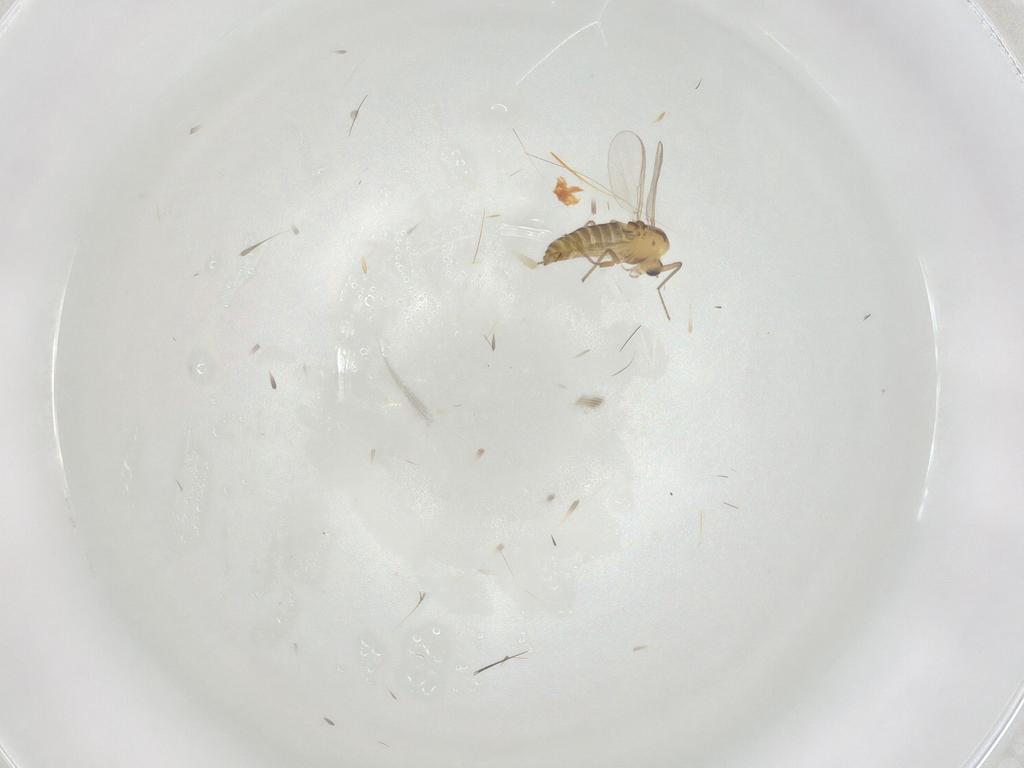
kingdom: Animalia
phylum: Arthropoda
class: Insecta
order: Diptera
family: Chironomidae
